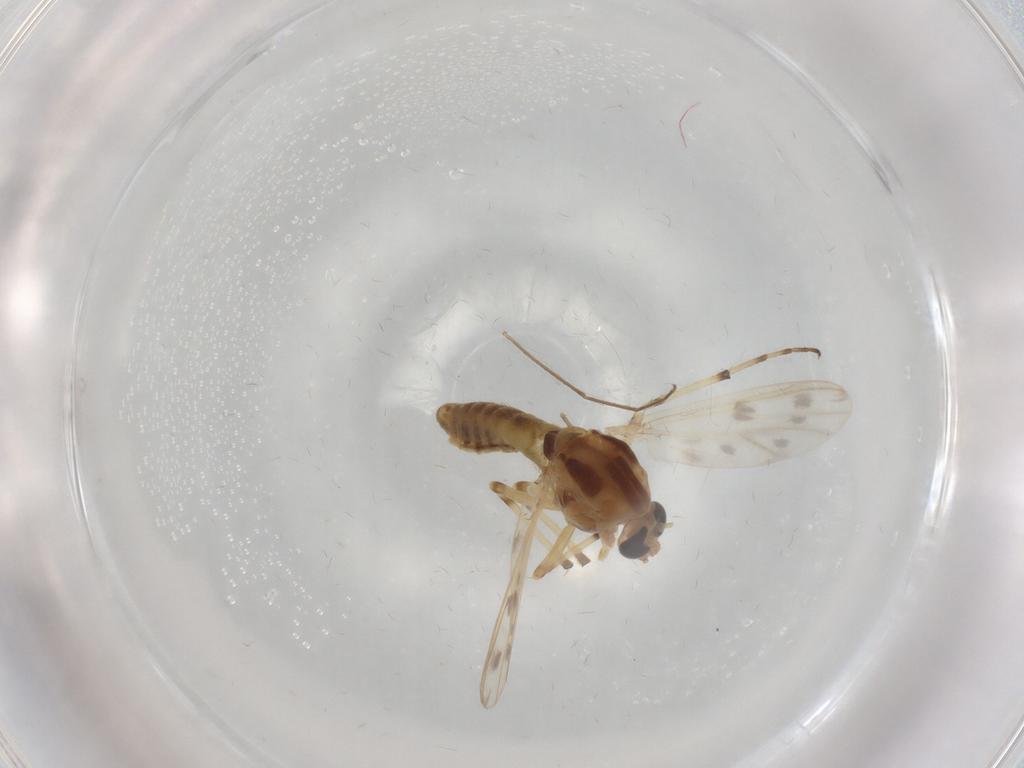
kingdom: Animalia
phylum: Arthropoda
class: Insecta
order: Diptera
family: Chironomidae
